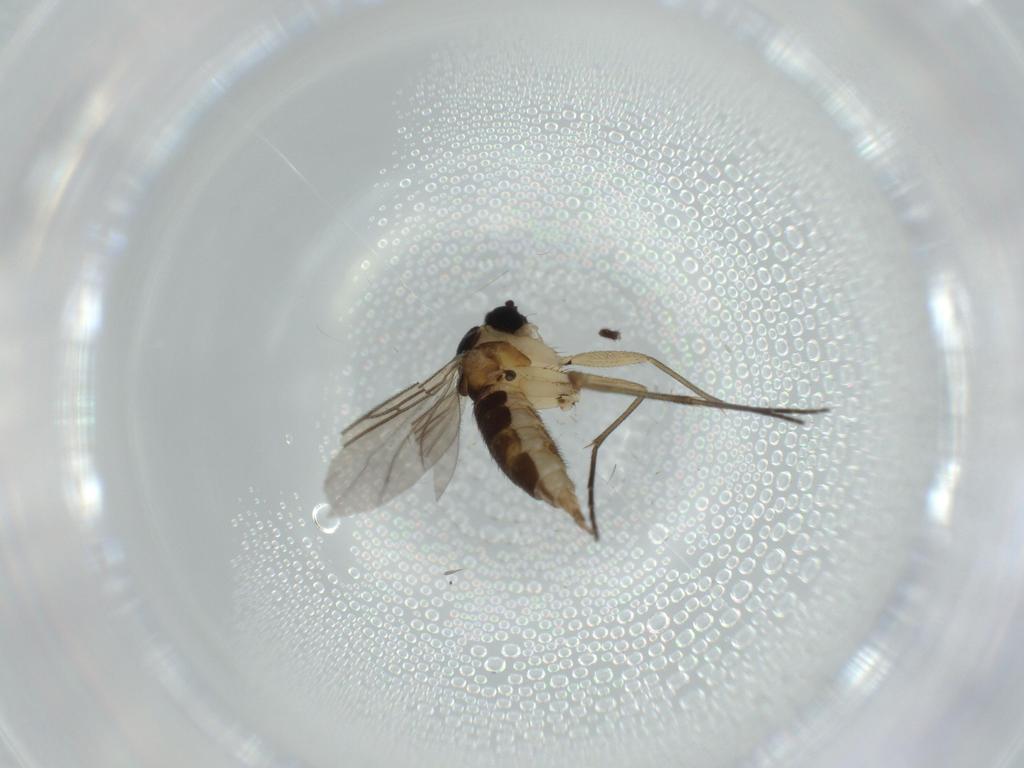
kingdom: Animalia
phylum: Arthropoda
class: Insecta
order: Diptera
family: Sciaridae
